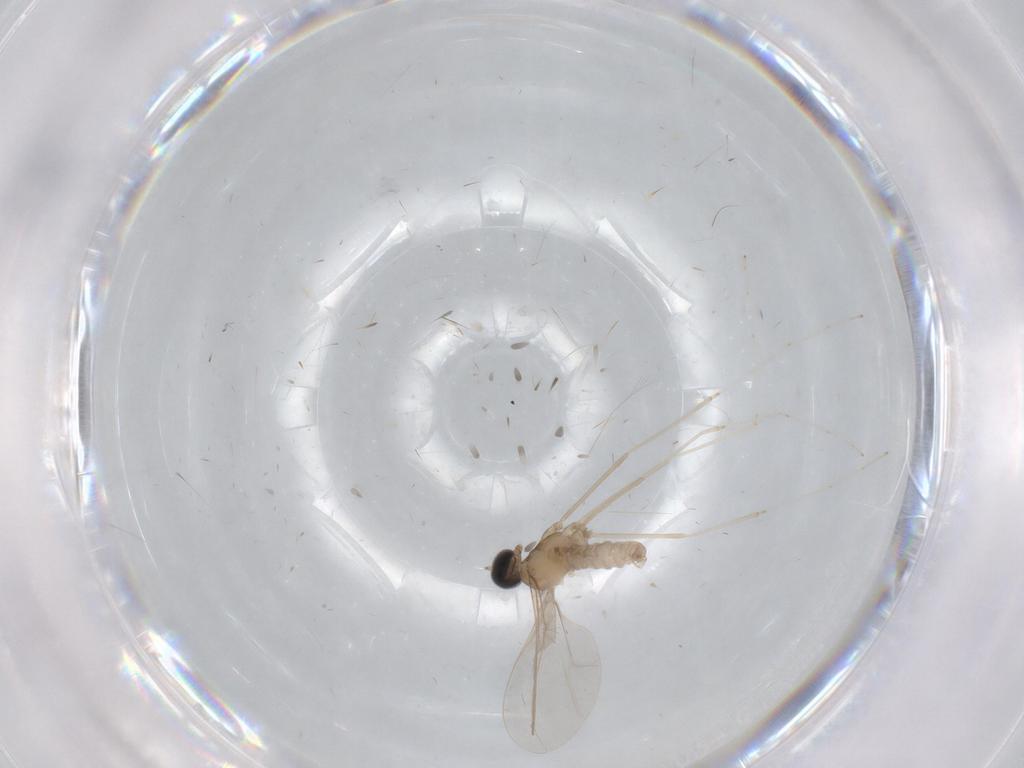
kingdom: Animalia
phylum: Arthropoda
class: Insecta
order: Diptera
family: Cecidomyiidae
